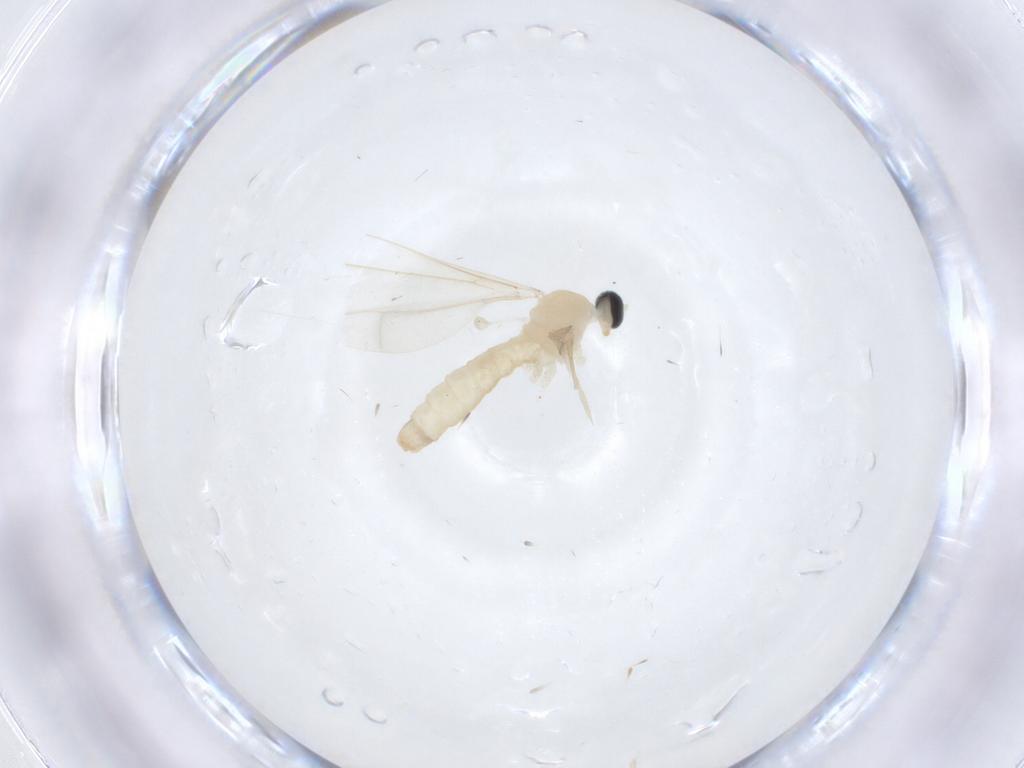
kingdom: Animalia
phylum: Arthropoda
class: Insecta
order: Diptera
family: Cecidomyiidae
